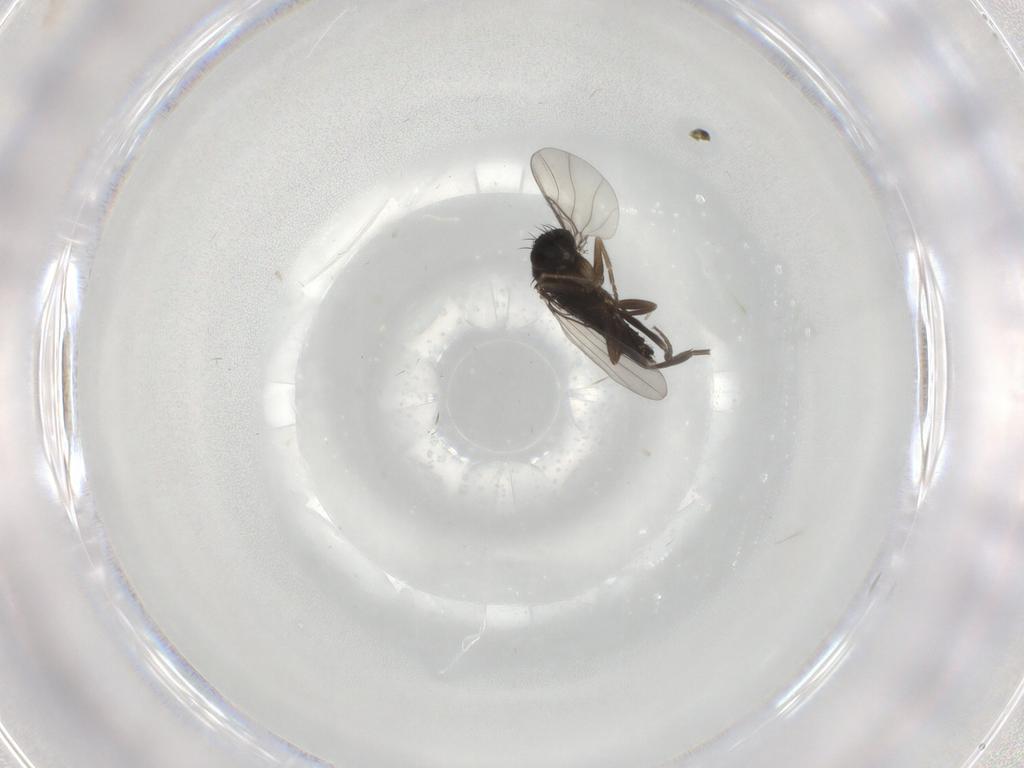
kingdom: Animalia
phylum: Arthropoda
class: Insecta
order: Diptera
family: Phoridae
